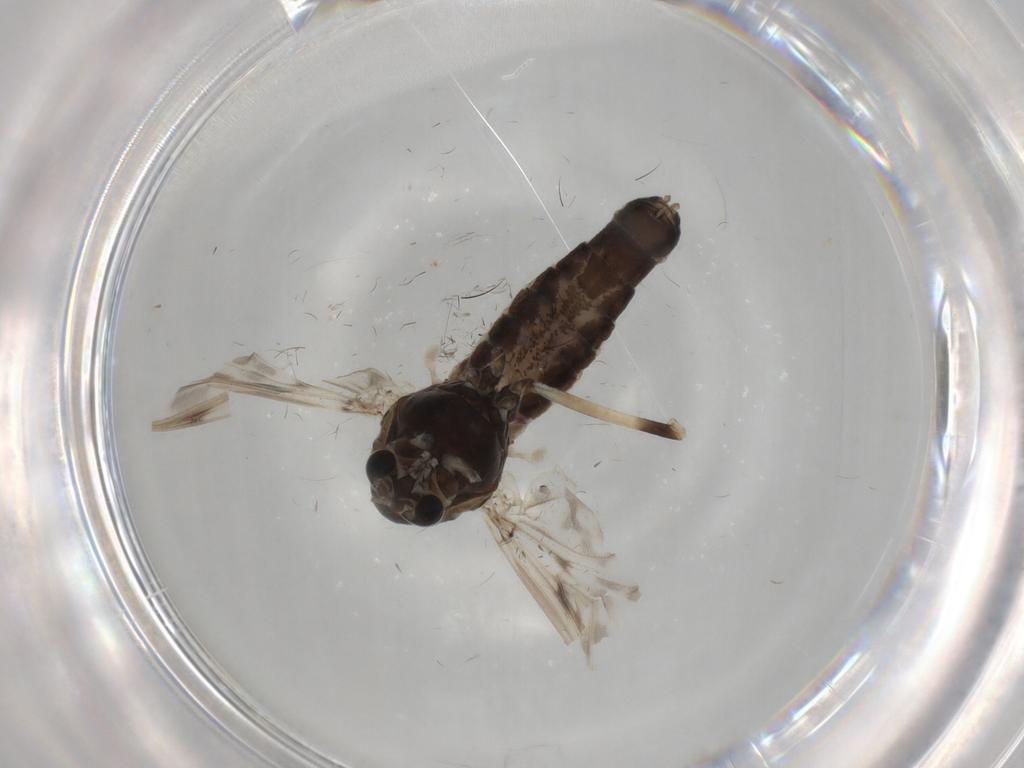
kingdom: Animalia
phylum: Arthropoda
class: Insecta
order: Diptera
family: Chironomidae
